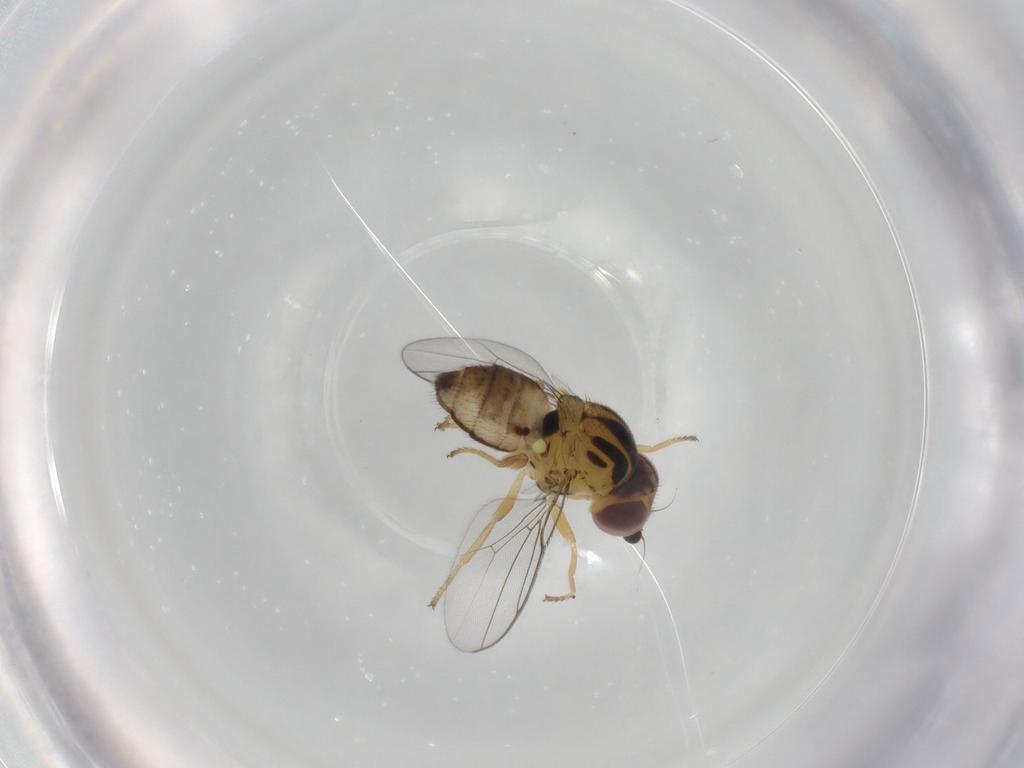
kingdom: Animalia
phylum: Arthropoda
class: Insecta
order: Diptera
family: Chloropidae
